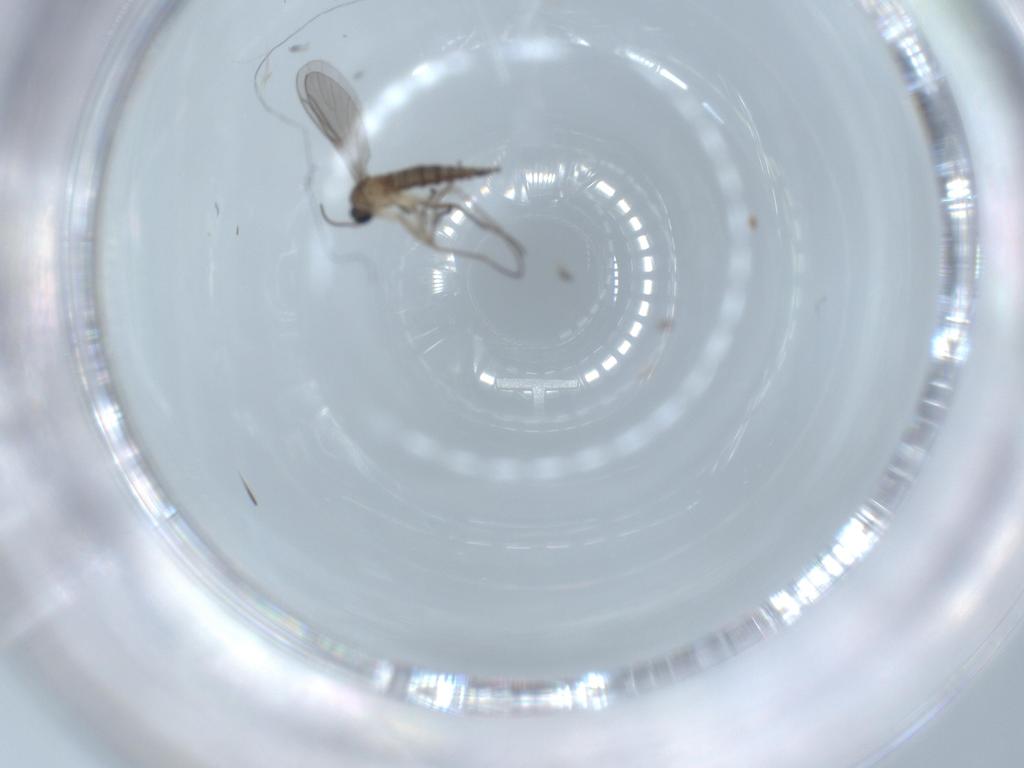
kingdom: Animalia
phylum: Arthropoda
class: Insecta
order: Diptera
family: Sciaridae
